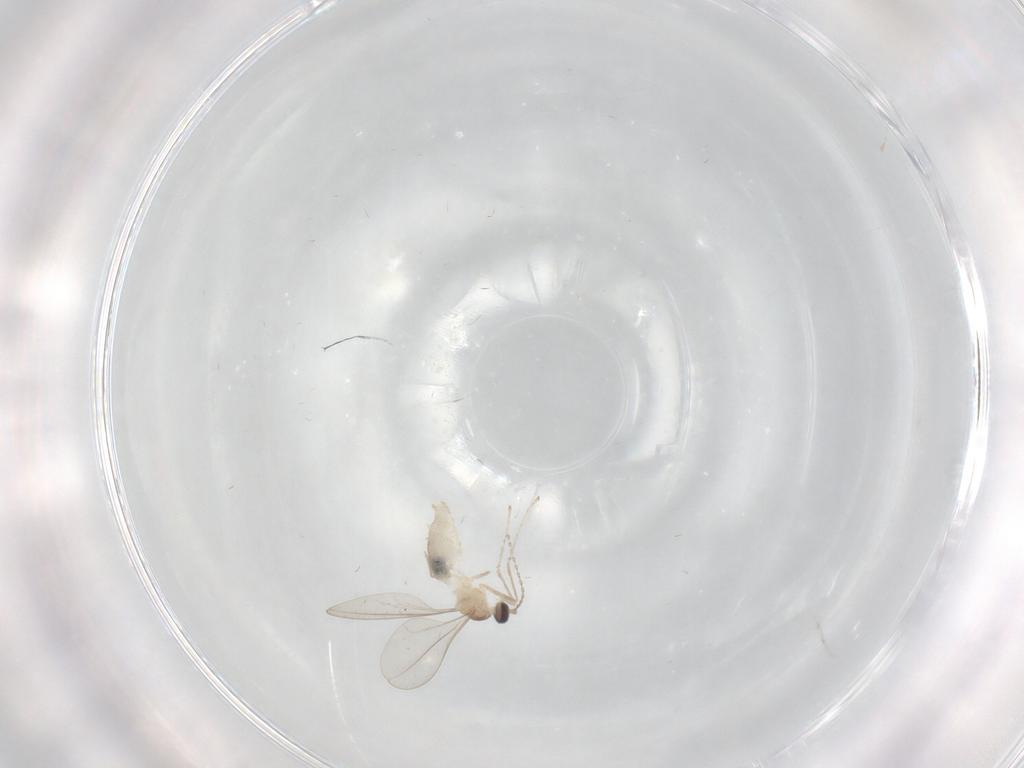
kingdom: Animalia
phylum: Arthropoda
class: Insecta
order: Diptera
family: Cecidomyiidae
